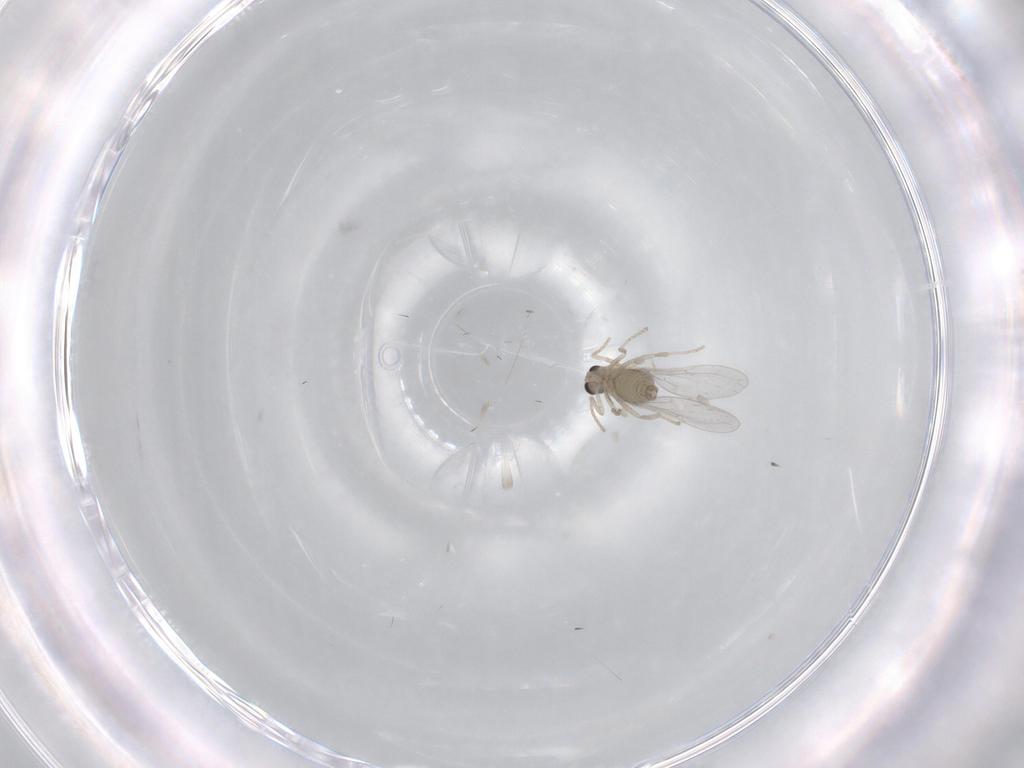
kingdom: Animalia
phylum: Arthropoda
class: Insecta
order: Diptera
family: Cecidomyiidae
